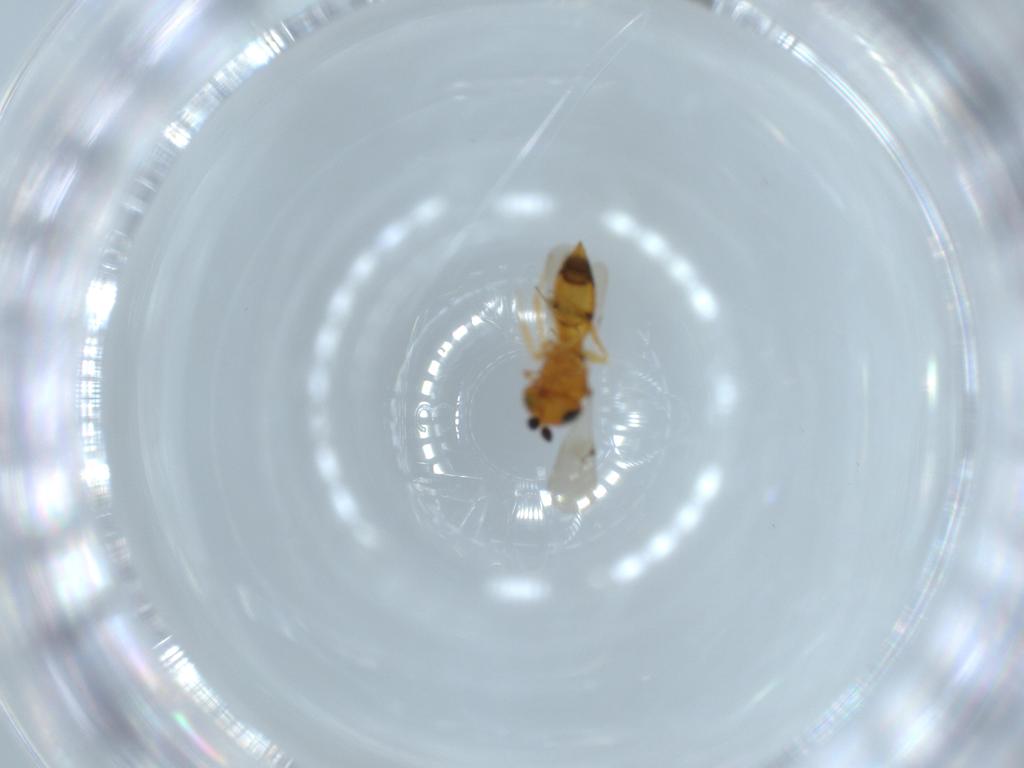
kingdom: Animalia
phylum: Arthropoda
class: Insecta
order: Hymenoptera
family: Scelionidae
